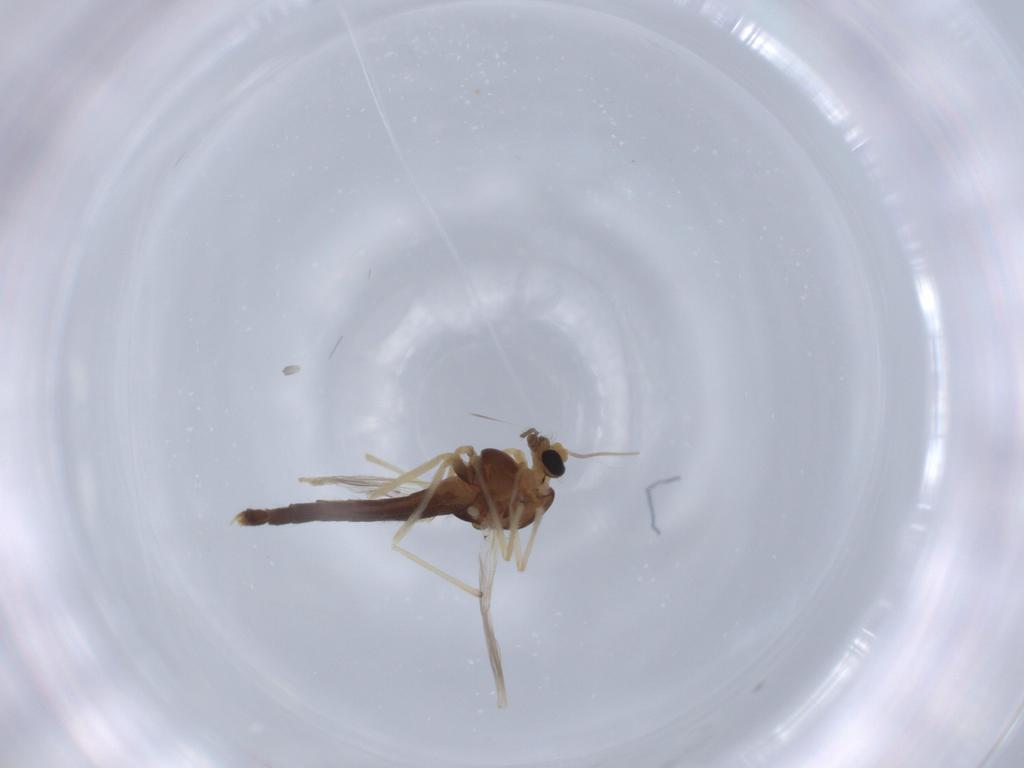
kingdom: Animalia
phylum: Arthropoda
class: Insecta
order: Diptera
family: Chironomidae
